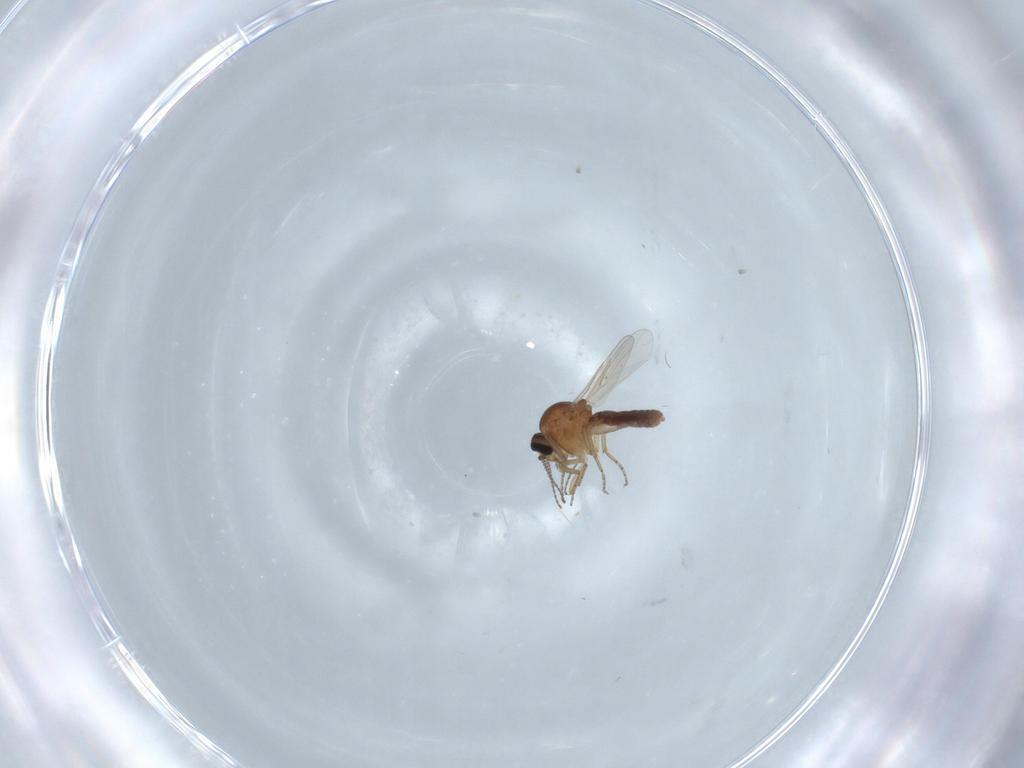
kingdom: Animalia
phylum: Arthropoda
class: Insecta
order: Diptera
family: Ceratopogonidae
